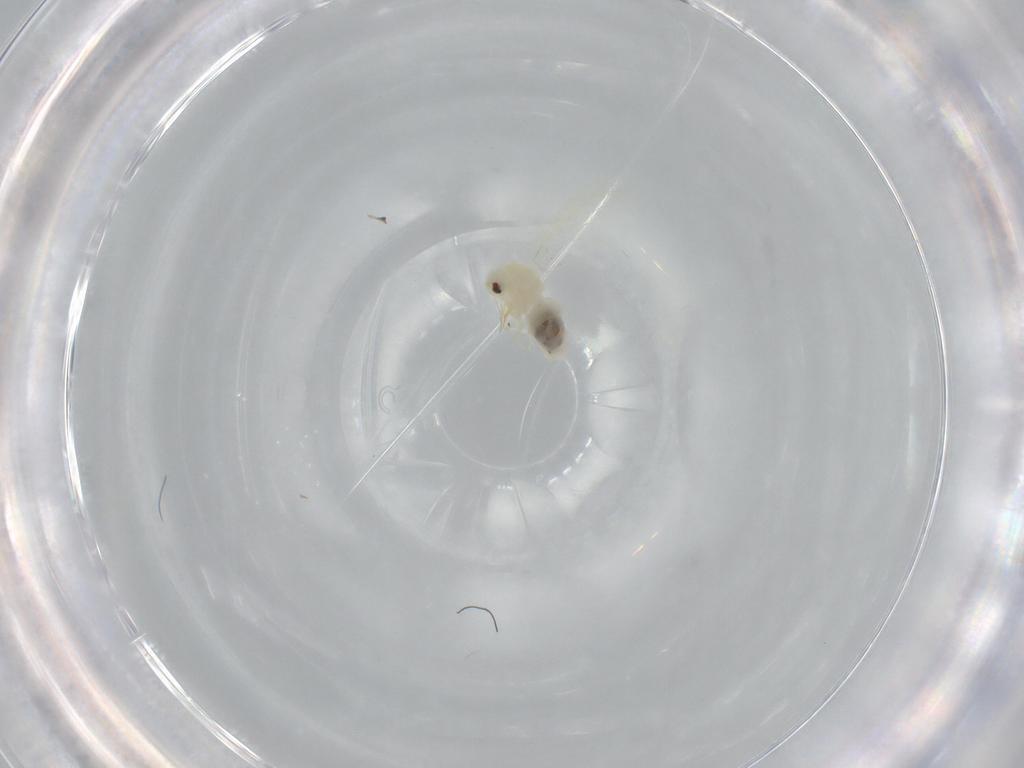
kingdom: Animalia
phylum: Arthropoda
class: Insecta
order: Hemiptera
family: Aleyrodidae
